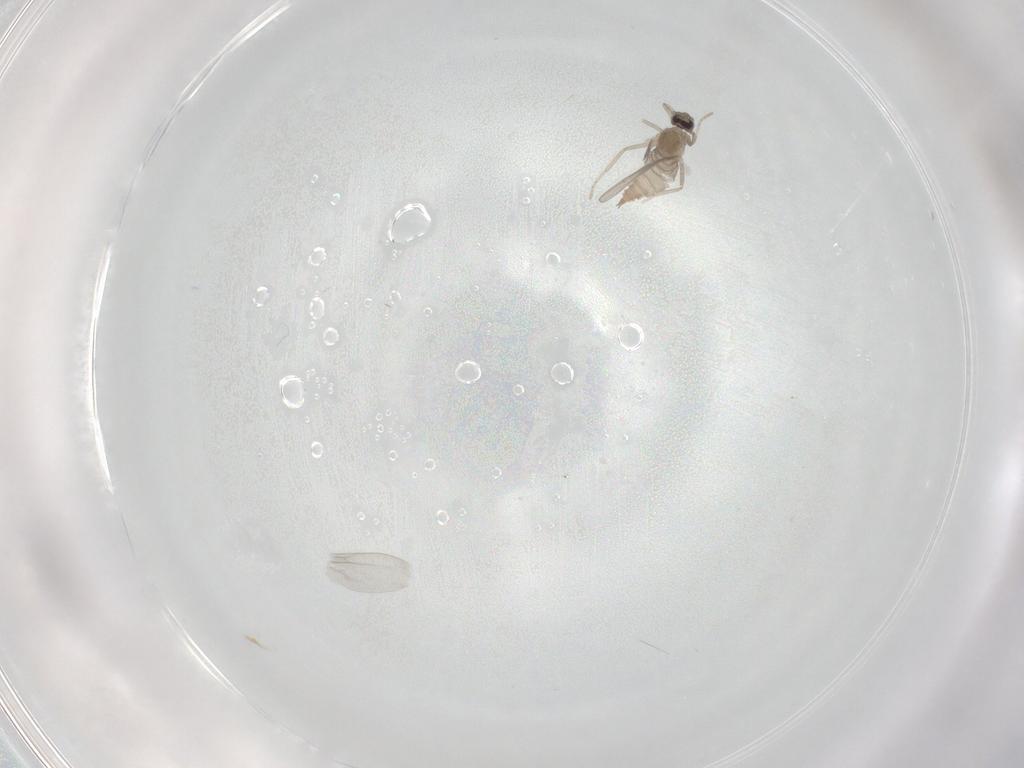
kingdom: Animalia
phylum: Arthropoda
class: Insecta
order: Diptera
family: Cecidomyiidae
